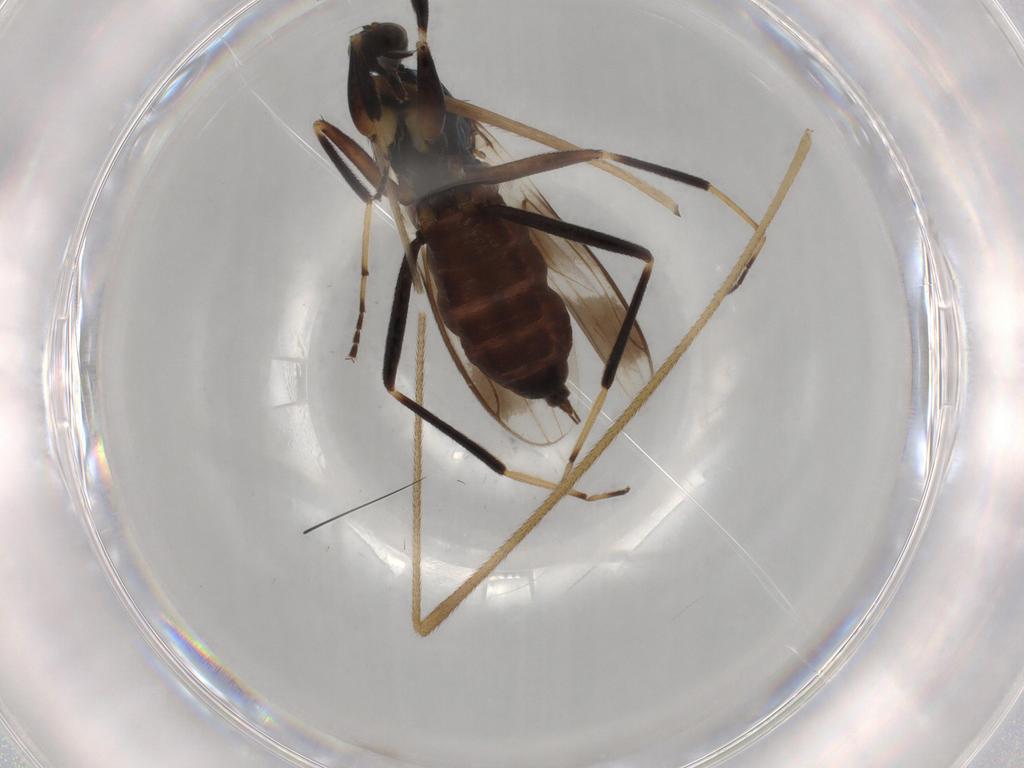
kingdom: Animalia
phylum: Arthropoda
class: Insecta
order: Diptera
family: Hybotidae
